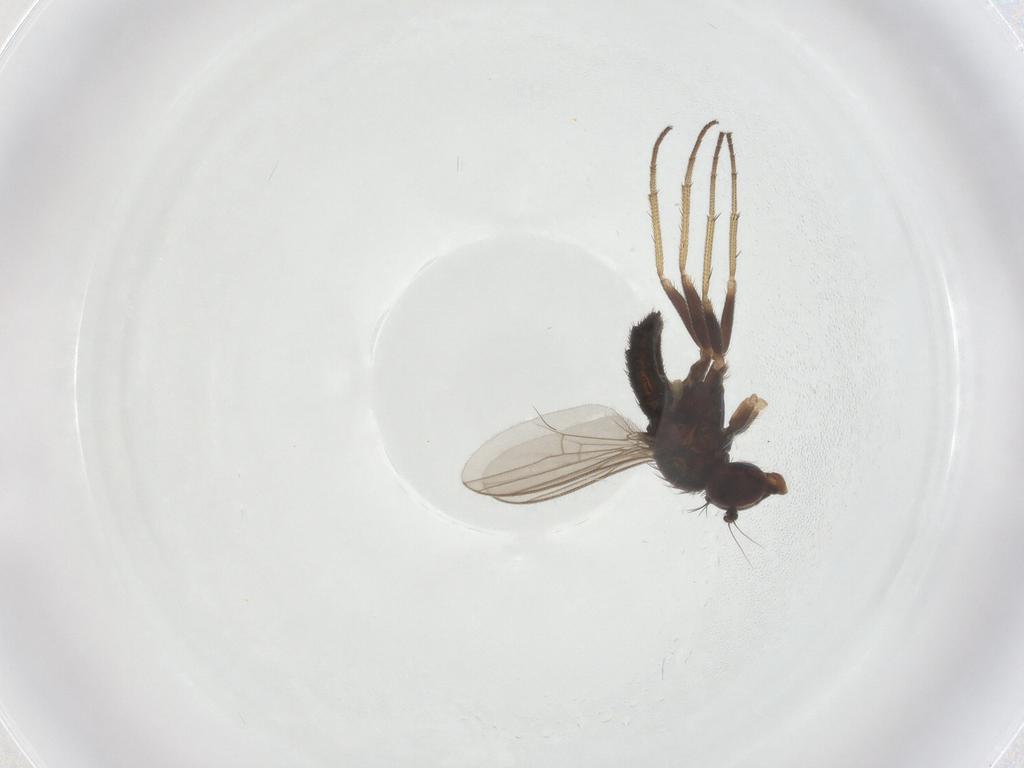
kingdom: Animalia
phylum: Arthropoda
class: Insecta
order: Diptera
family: Dolichopodidae
